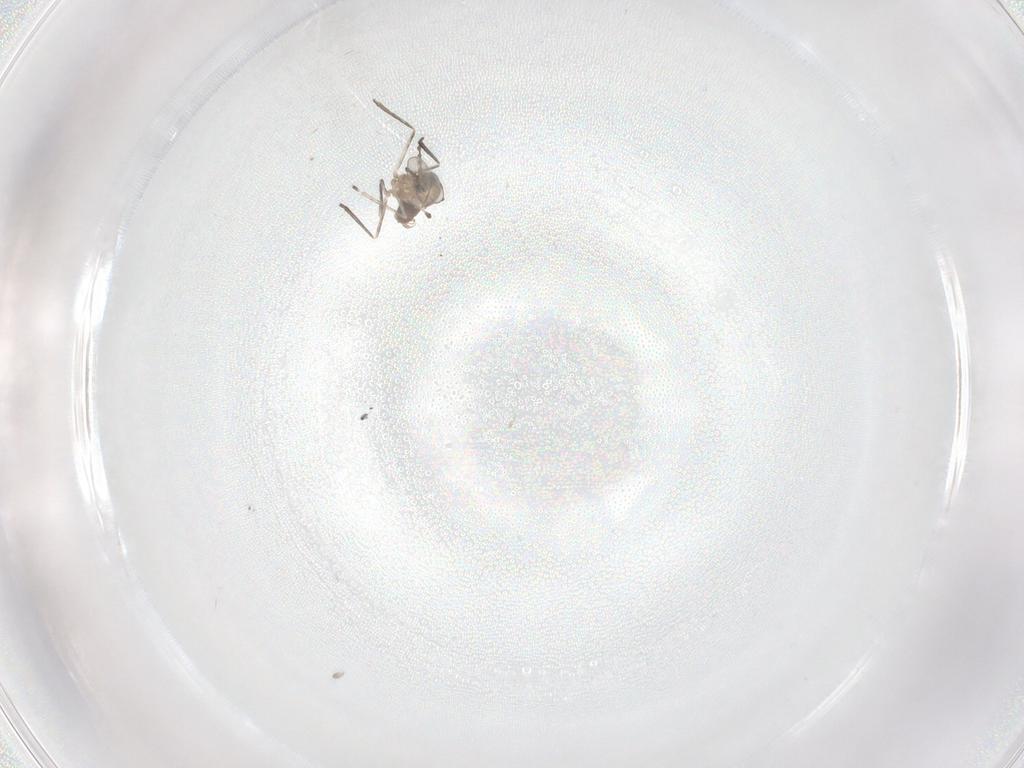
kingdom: Animalia
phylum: Arthropoda
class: Insecta
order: Diptera
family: Cecidomyiidae
